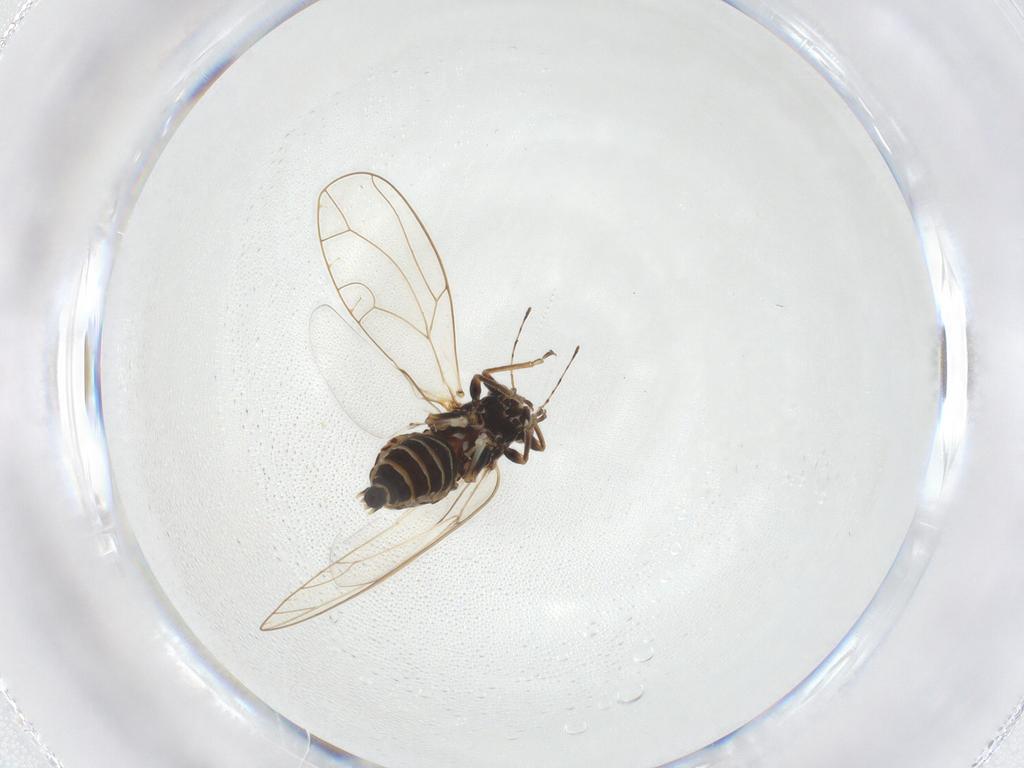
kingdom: Animalia
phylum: Arthropoda
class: Insecta
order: Hemiptera
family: Triozidae
